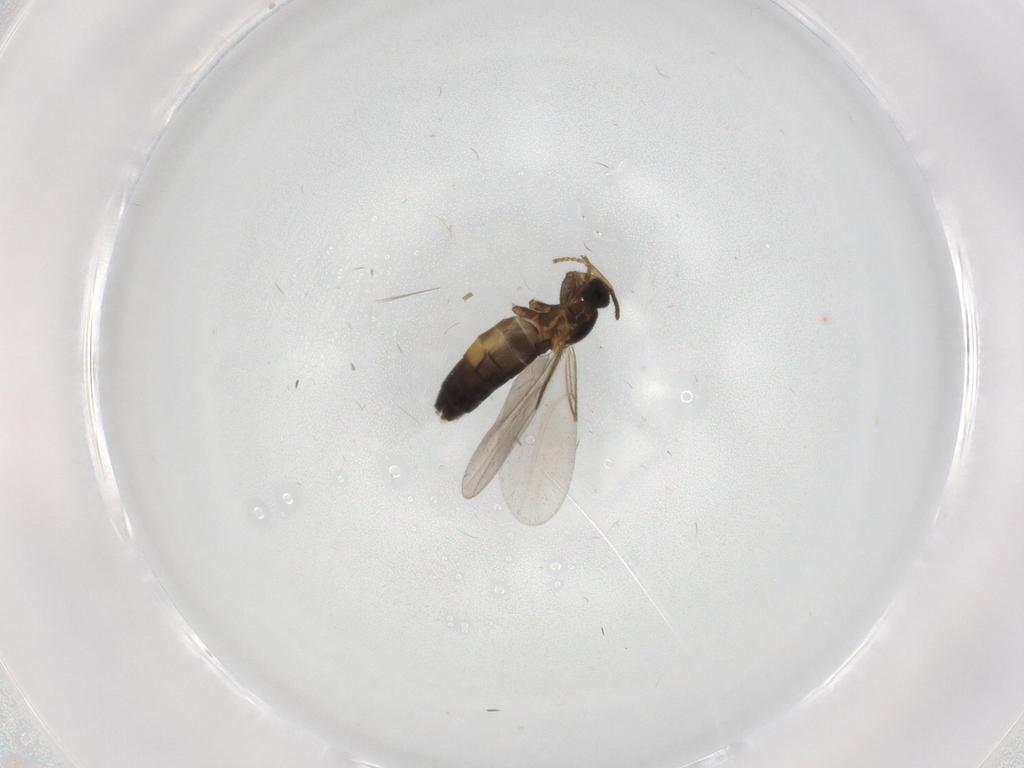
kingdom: Animalia
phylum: Arthropoda
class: Insecta
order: Diptera
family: Scatopsidae
